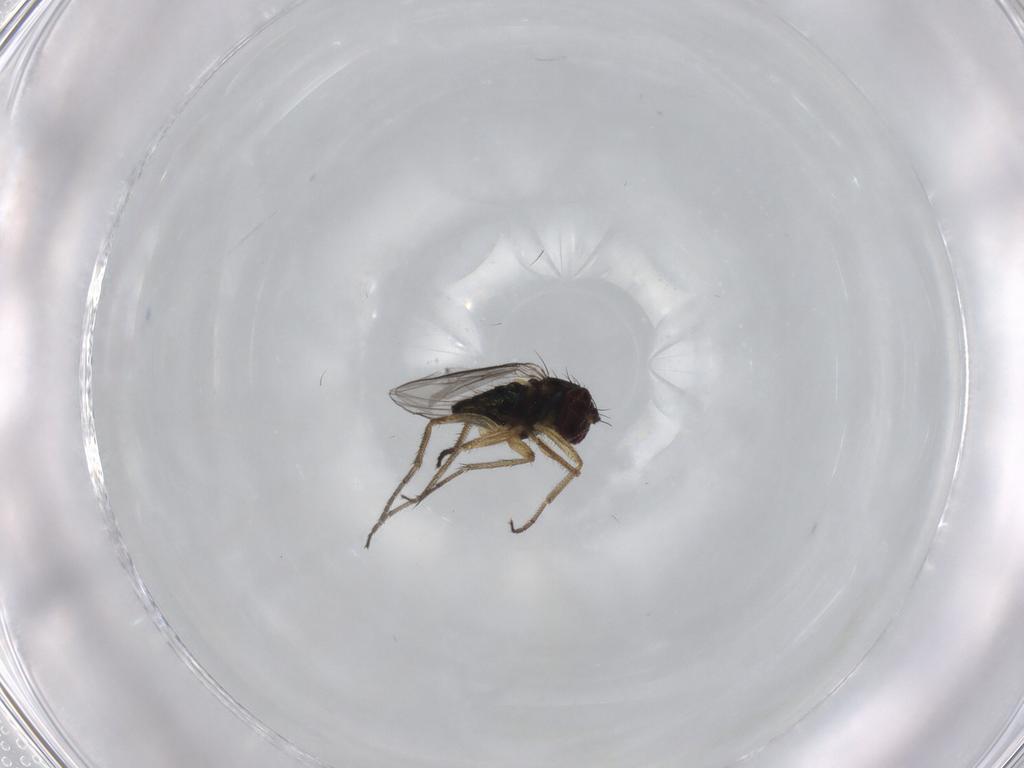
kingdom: Animalia
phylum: Arthropoda
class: Insecta
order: Diptera
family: Dolichopodidae
